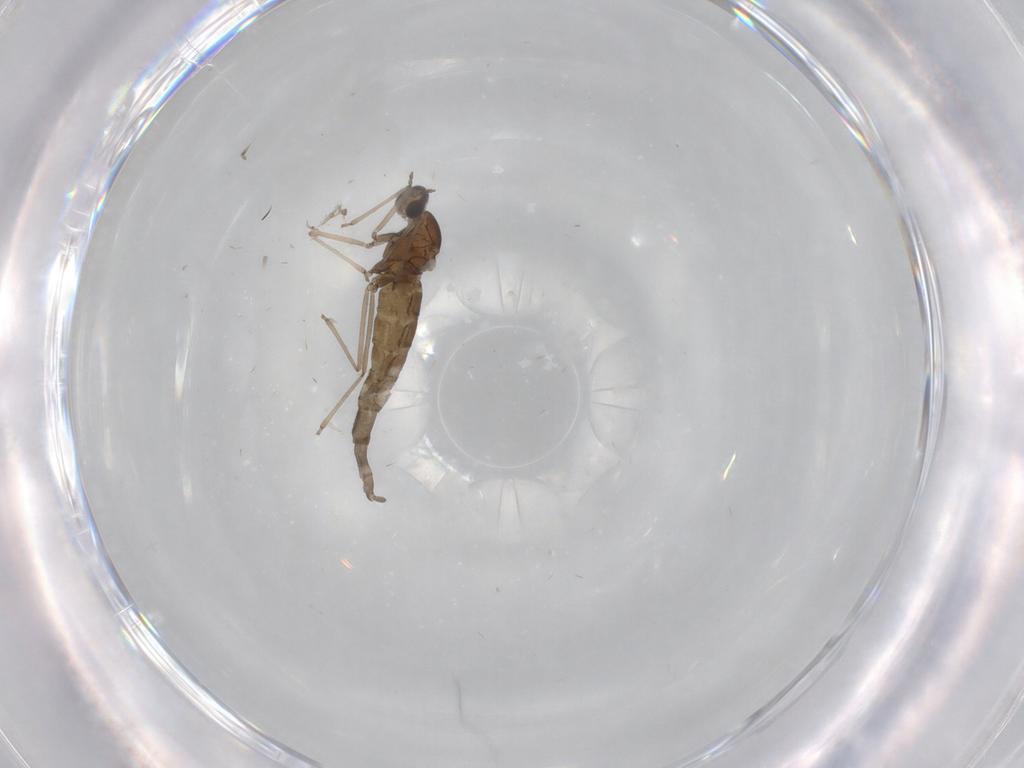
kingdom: Animalia
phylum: Arthropoda
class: Insecta
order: Diptera
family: Cecidomyiidae
